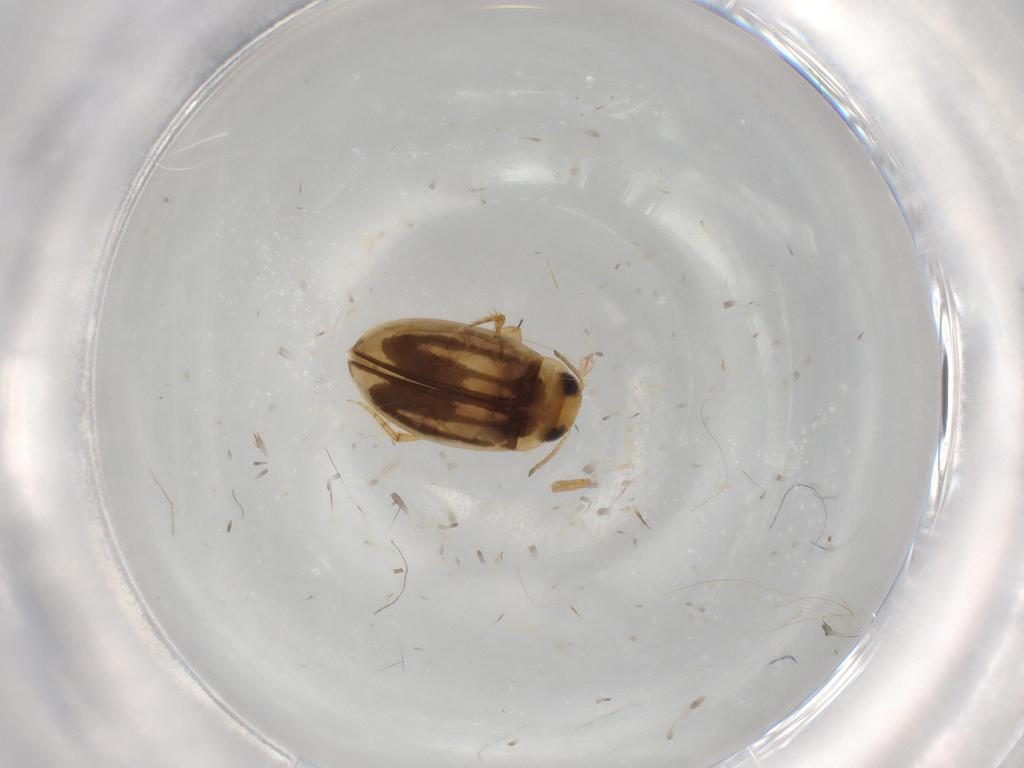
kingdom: Animalia
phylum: Arthropoda
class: Insecta
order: Coleoptera
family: Dytiscidae
